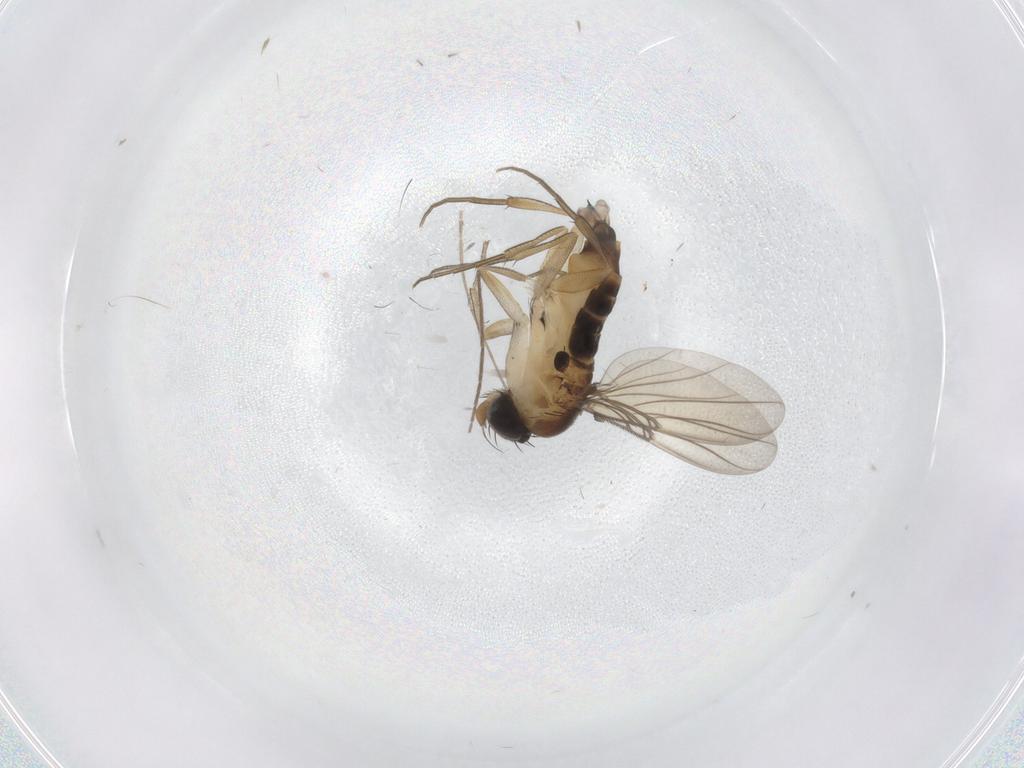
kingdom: Animalia
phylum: Arthropoda
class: Insecta
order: Diptera
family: Phoridae
